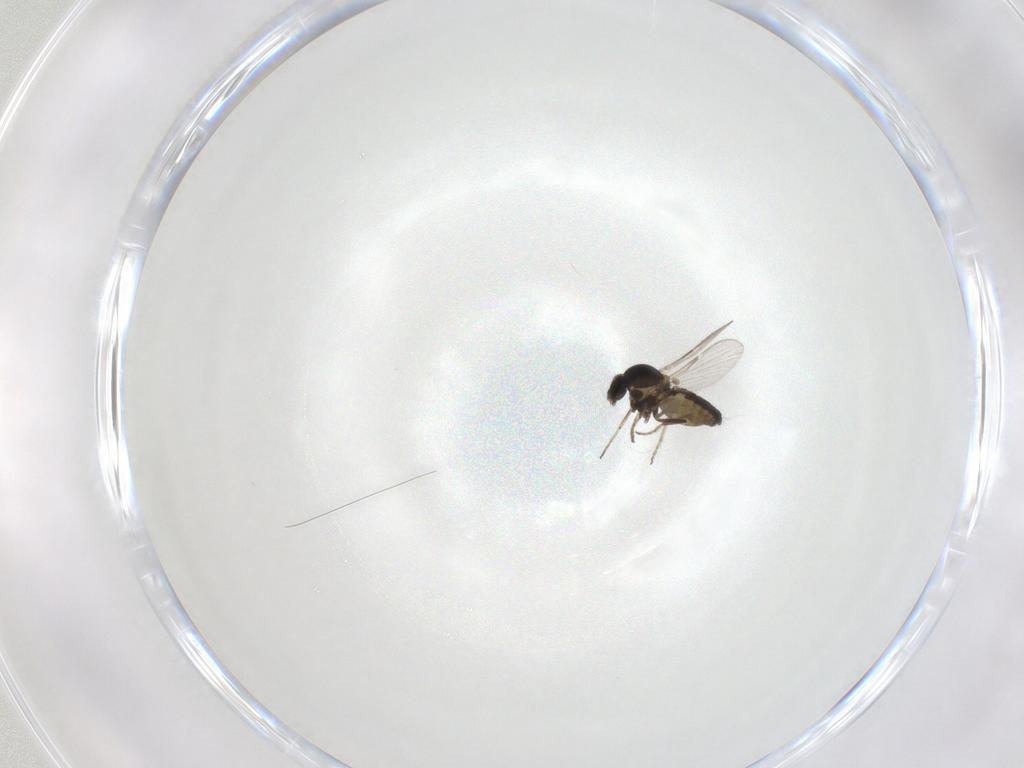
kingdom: Animalia
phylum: Arthropoda
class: Insecta
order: Diptera
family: Ceratopogonidae
